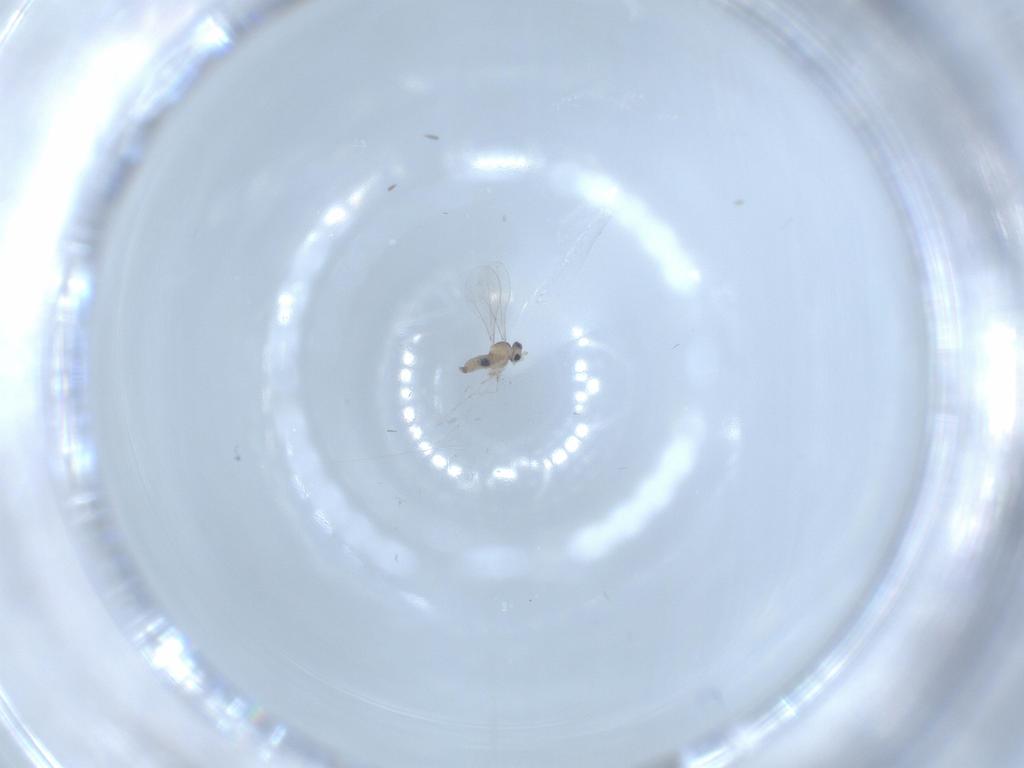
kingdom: Animalia
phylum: Arthropoda
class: Insecta
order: Diptera
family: Cecidomyiidae
